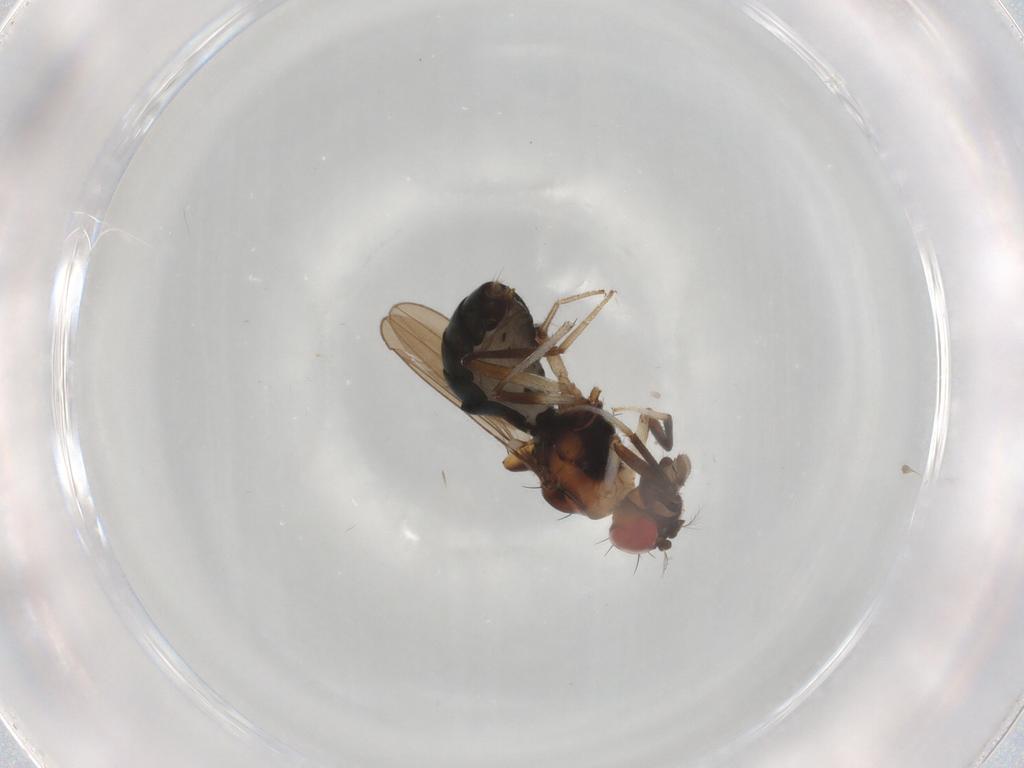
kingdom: Animalia
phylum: Arthropoda
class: Insecta
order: Diptera
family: Drosophilidae
